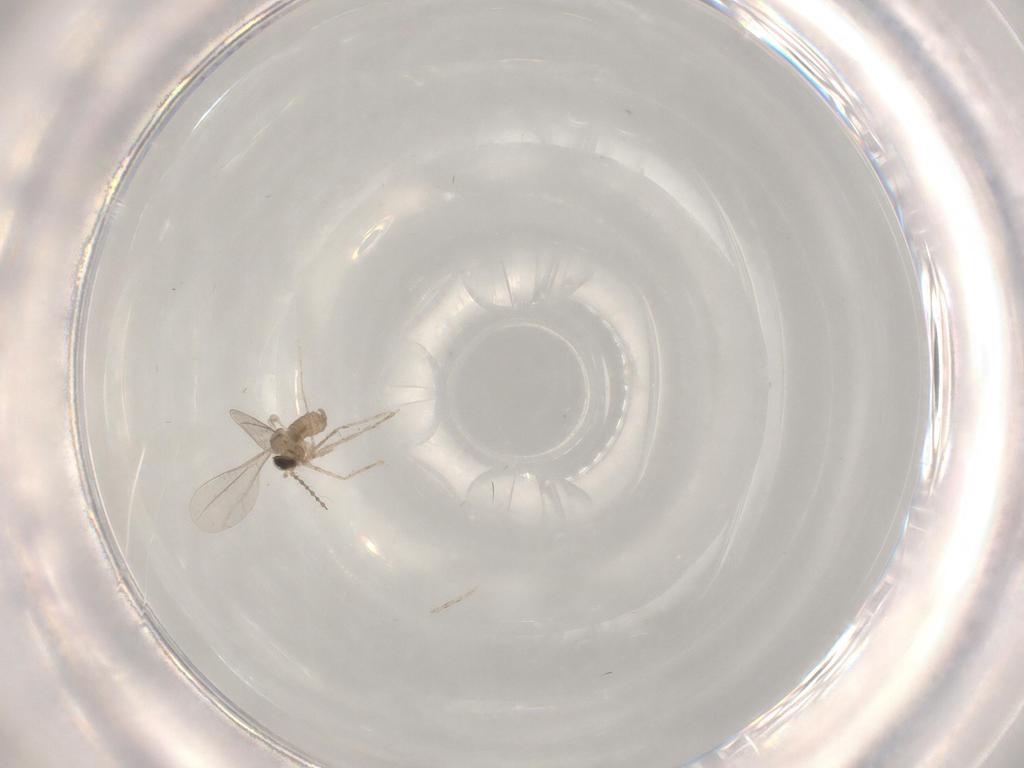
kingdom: Animalia
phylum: Arthropoda
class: Insecta
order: Diptera
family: Cecidomyiidae
